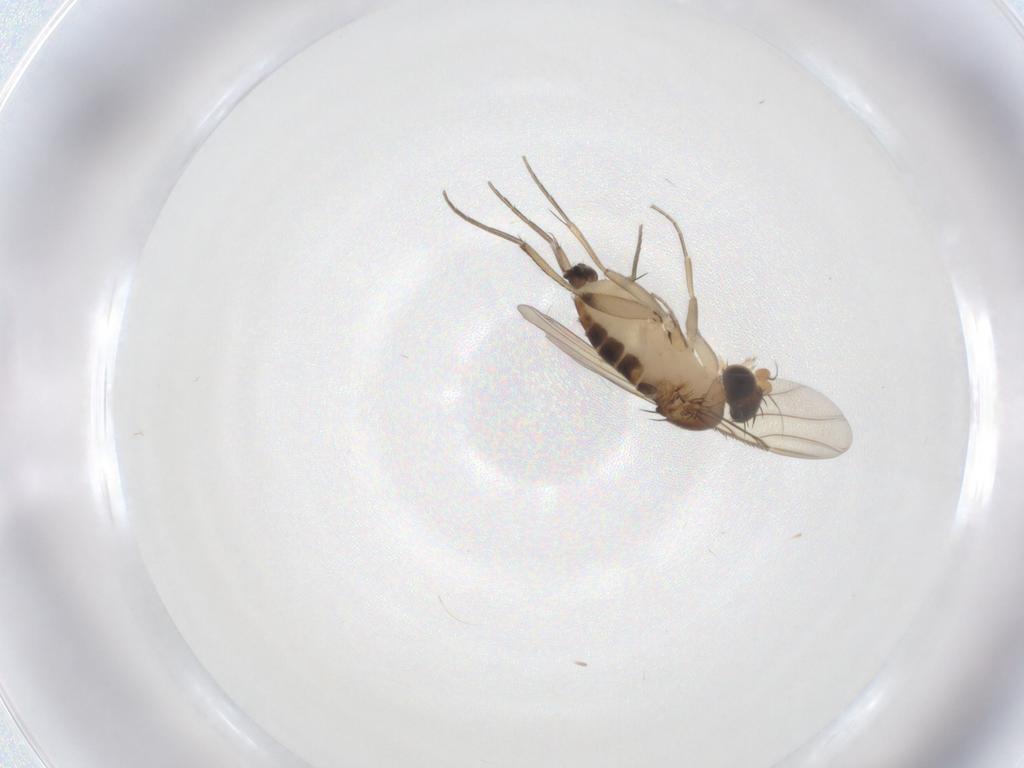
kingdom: Animalia
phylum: Arthropoda
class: Insecta
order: Diptera
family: Phoridae
